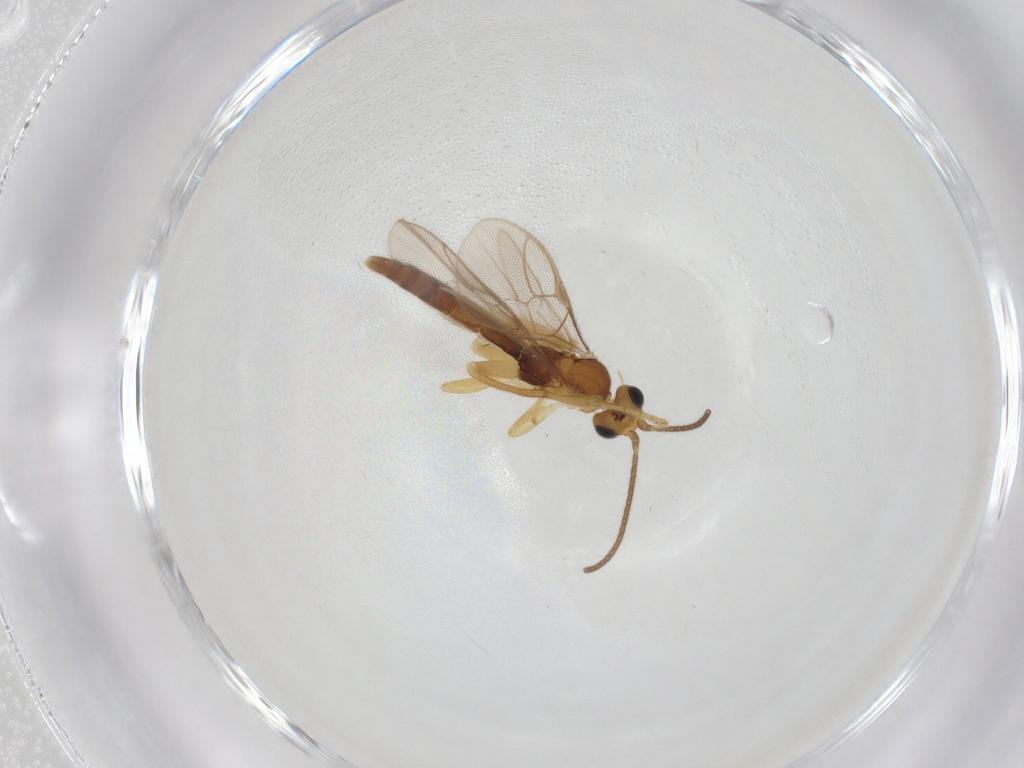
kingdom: Animalia
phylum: Arthropoda
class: Insecta
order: Hymenoptera
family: Ichneumonidae
